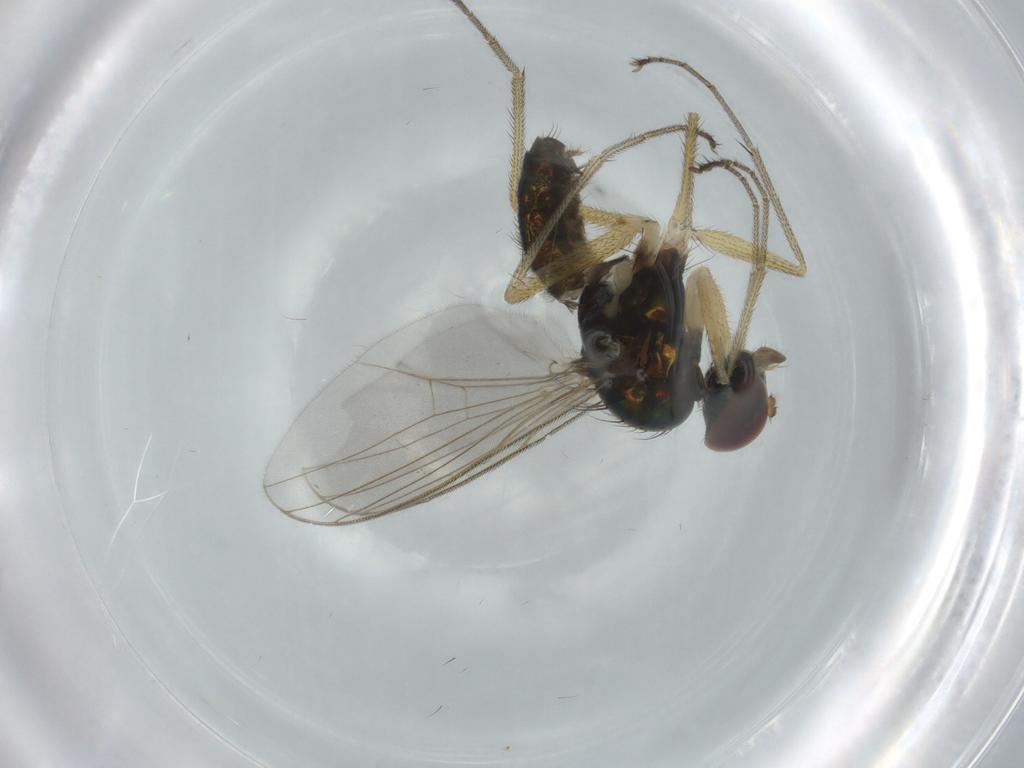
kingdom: Animalia
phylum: Arthropoda
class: Insecta
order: Diptera
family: Dolichopodidae
